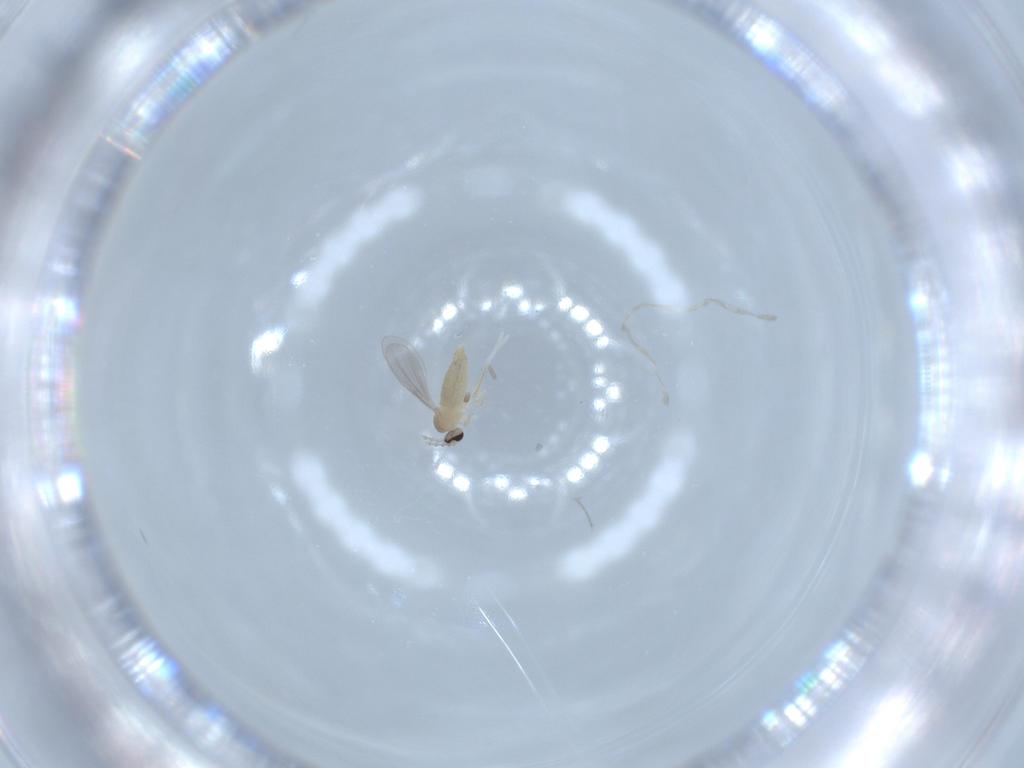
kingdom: Animalia
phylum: Arthropoda
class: Insecta
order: Diptera
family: Cecidomyiidae
